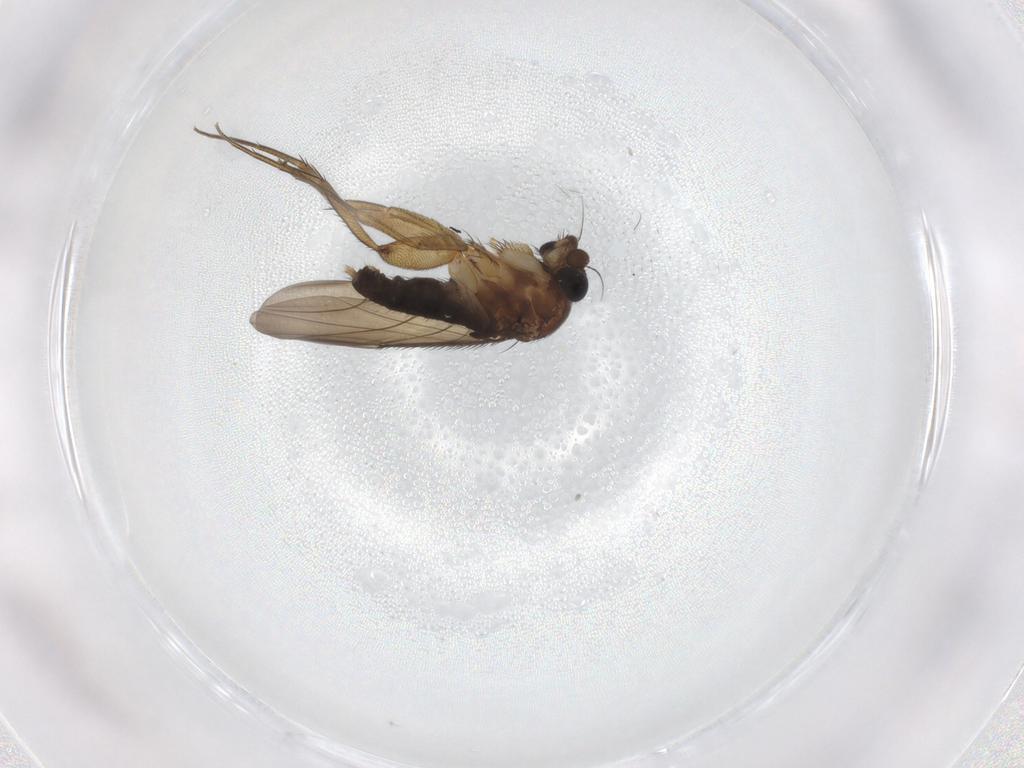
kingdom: Animalia
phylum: Arthropoda
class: Insecta
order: Diptera
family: Phoridae
